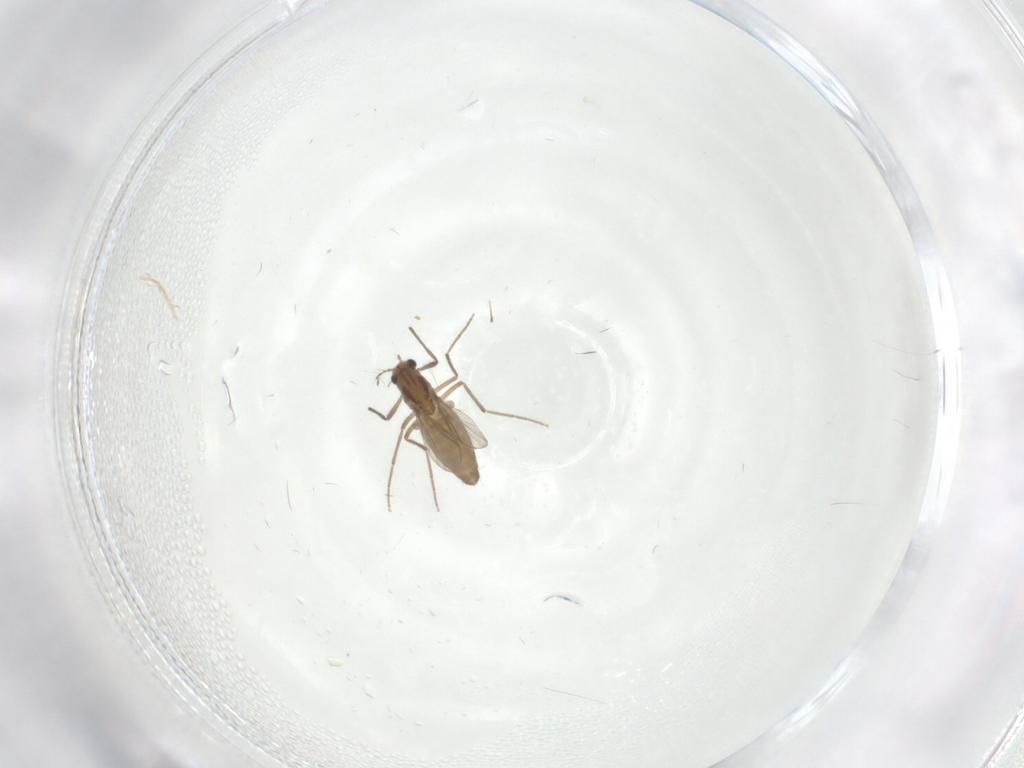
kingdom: Animalia
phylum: Arthropoda
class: Insecta
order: Diptera
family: Chironomidae
